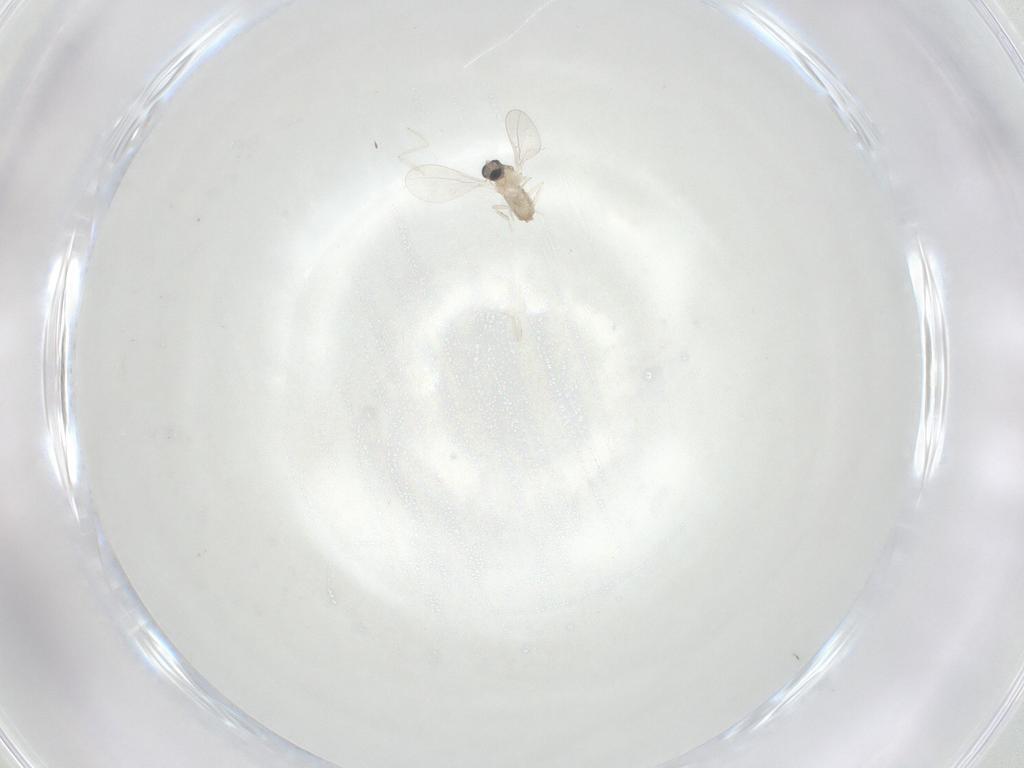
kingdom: Animalia
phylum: Arthropoda
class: Insecta
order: Diptera
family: Cecidomyiidae
